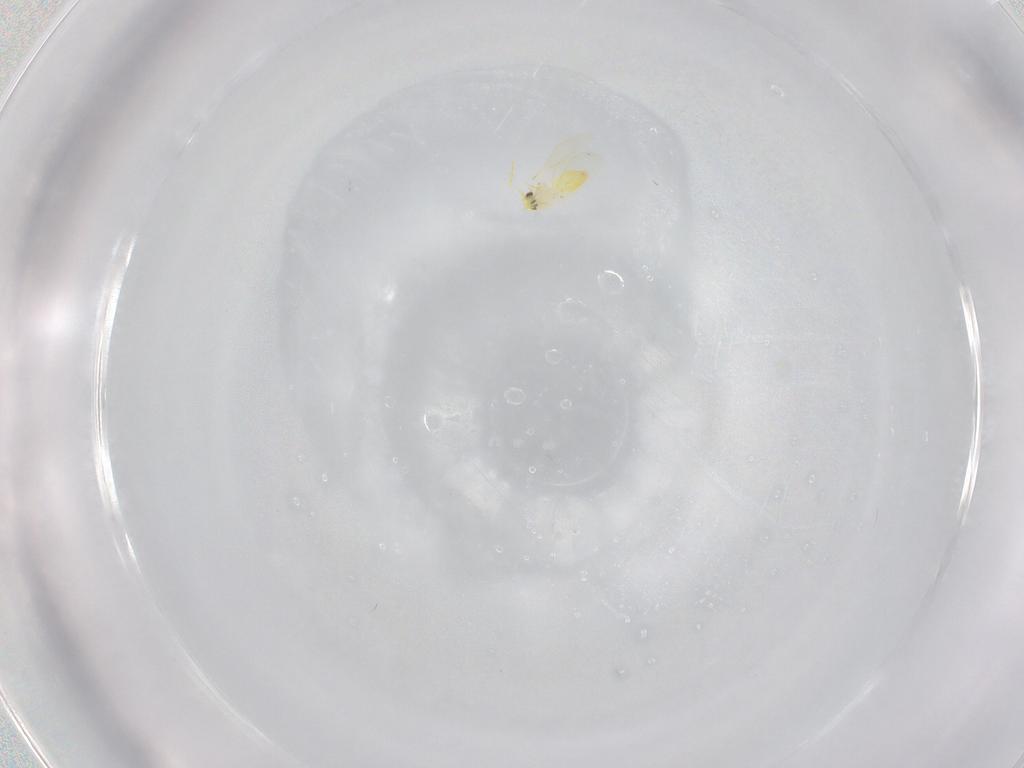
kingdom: Animalia
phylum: Arthropoda
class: Insecta
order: Hemiptera
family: Aleyrodidae
